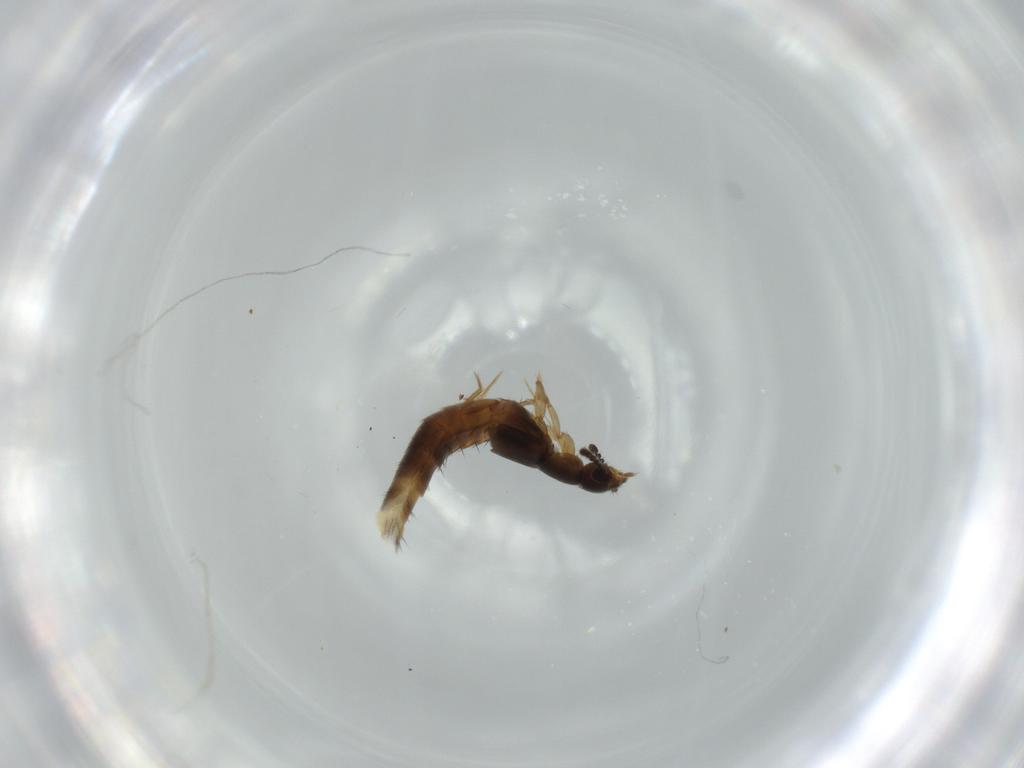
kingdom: Animalia
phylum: Arthropoda
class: Insecta
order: Coleoptera
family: Staphylinidae
